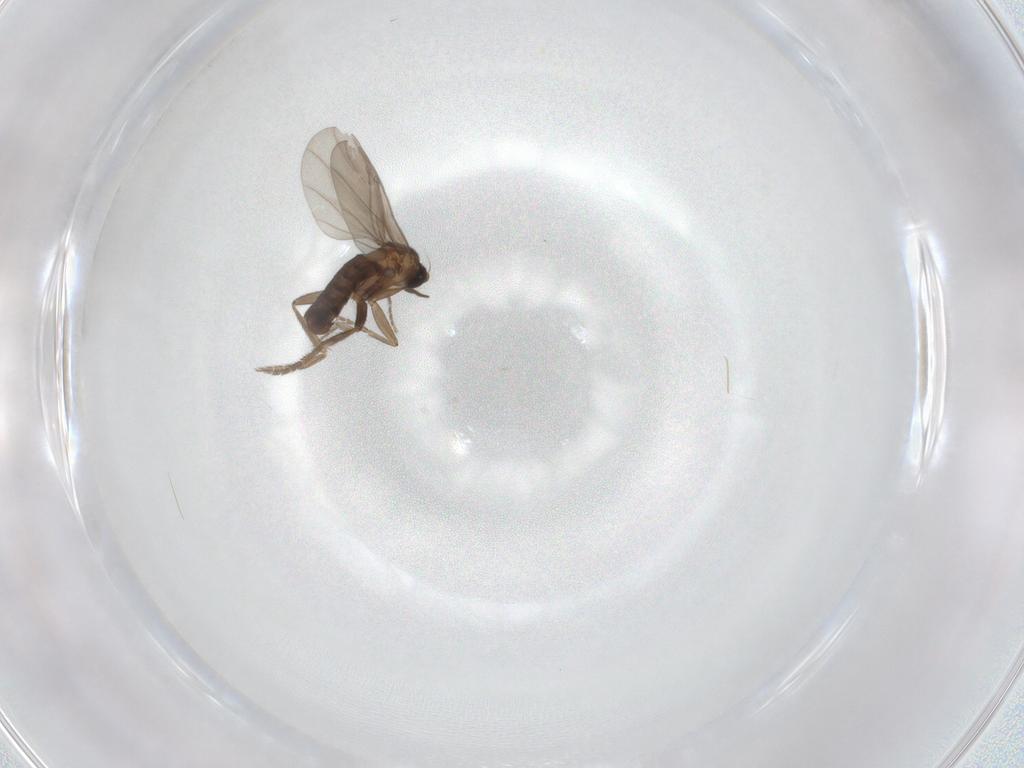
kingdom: Animalia
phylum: Arthropoda
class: Insecta
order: Diptera
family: Phoridae
